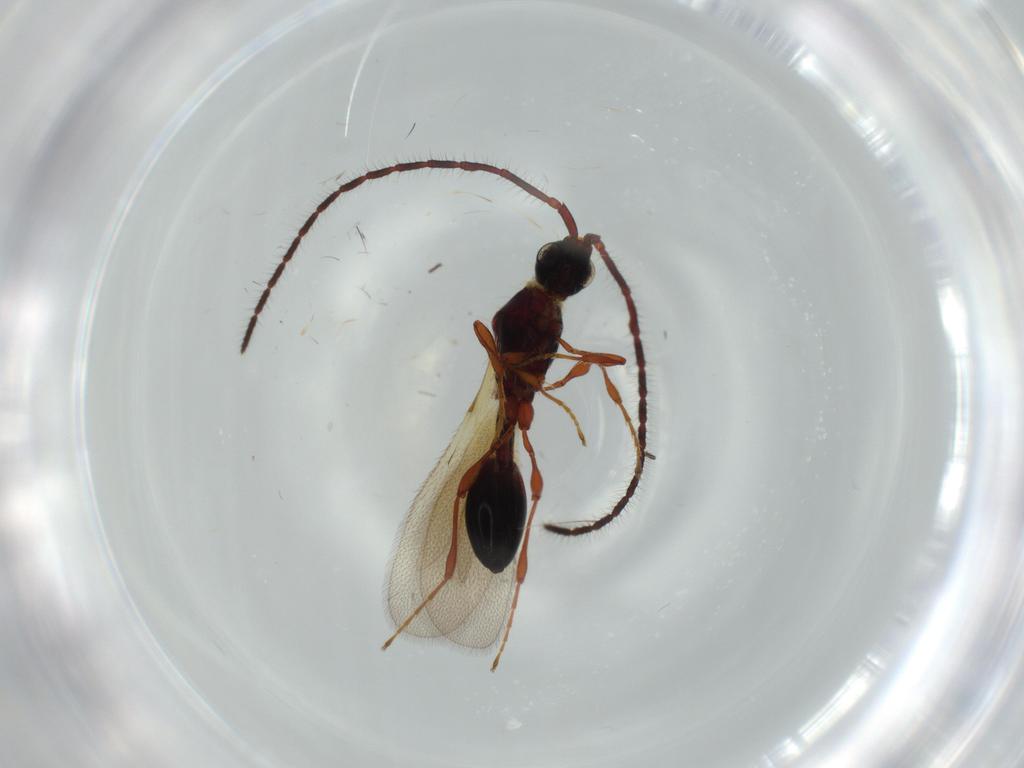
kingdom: Animalia
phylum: Arthropoda
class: Insecta
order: Hymenoptera
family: Diapriidae
